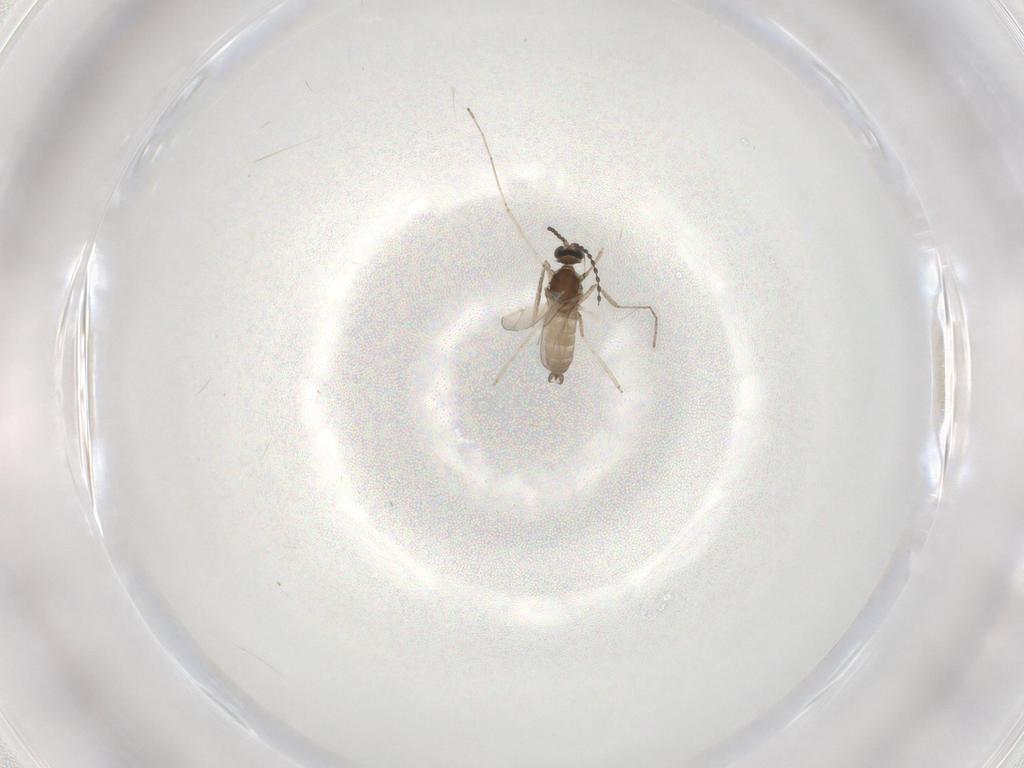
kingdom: Animalia
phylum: Arthropoda
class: Insecta
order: Diptera
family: Cecidomyiidae
